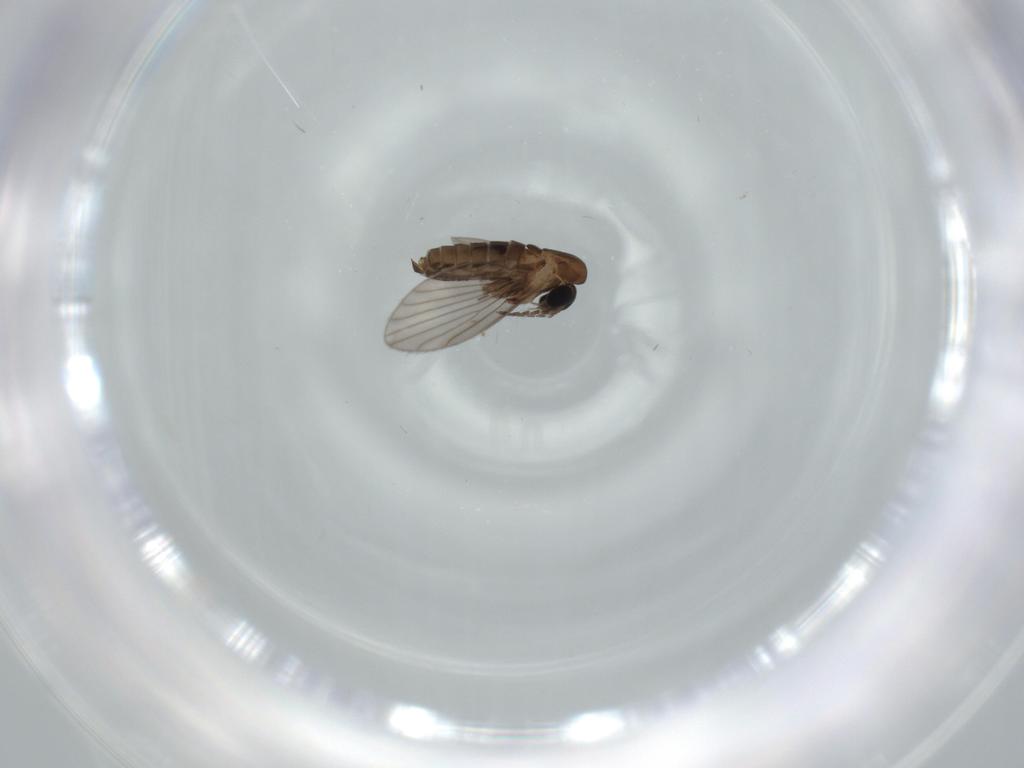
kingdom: Animalia
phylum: Arthropoda
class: Insecta
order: Diptera
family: Sphaeroceridae
